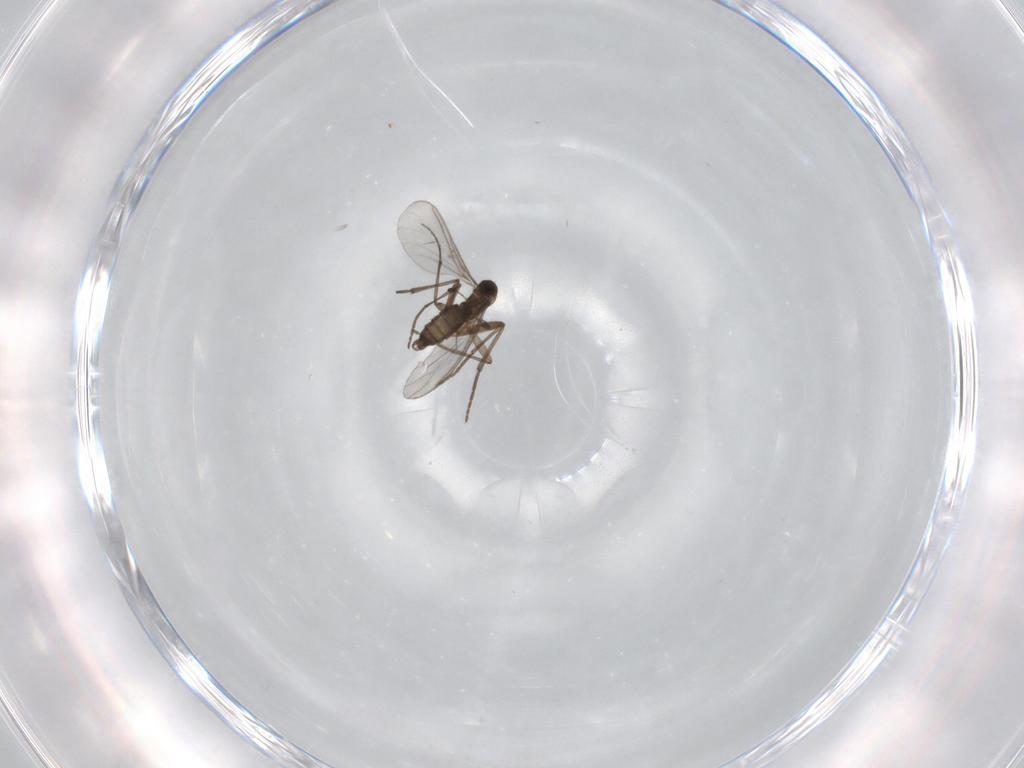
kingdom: Animalia
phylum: Arthropoda
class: Insecta
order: Diptera
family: Sciaridae
